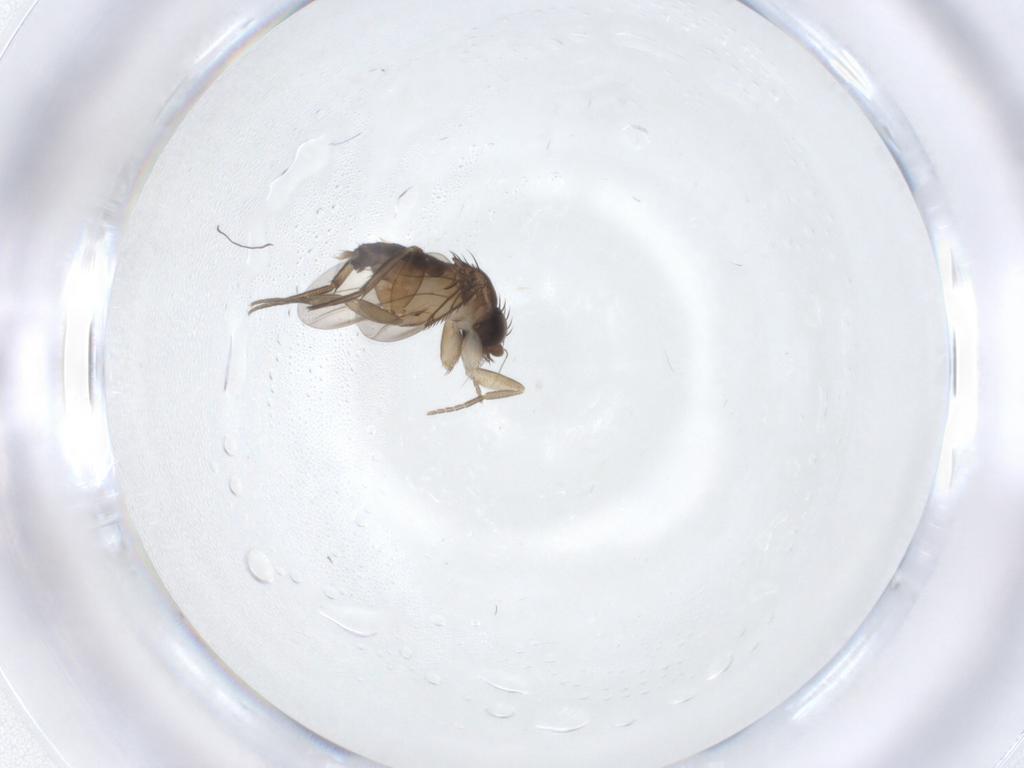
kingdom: Animalia
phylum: Arthropoda
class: Insecta
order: Diptera
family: Phoridae
